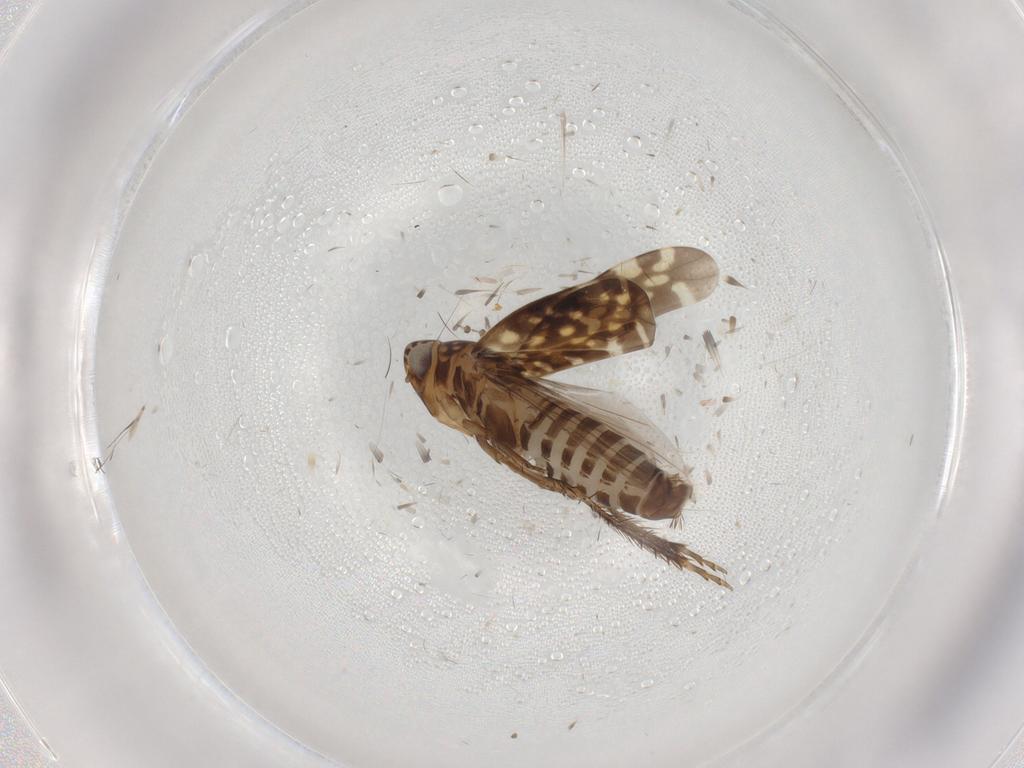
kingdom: Animalia
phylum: Arthropoda
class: Insecta
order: Hemiptera
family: Cicadellidae
